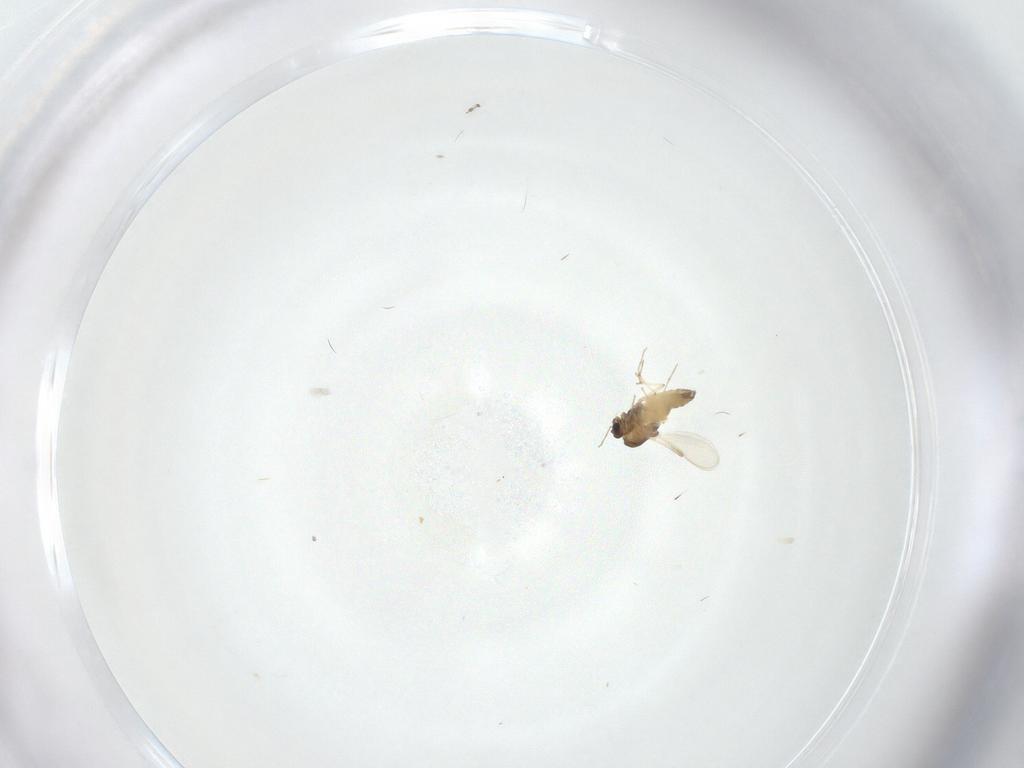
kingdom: Animalia
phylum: Arthropoda
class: Insecta
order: Diptera
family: Chironomidae
